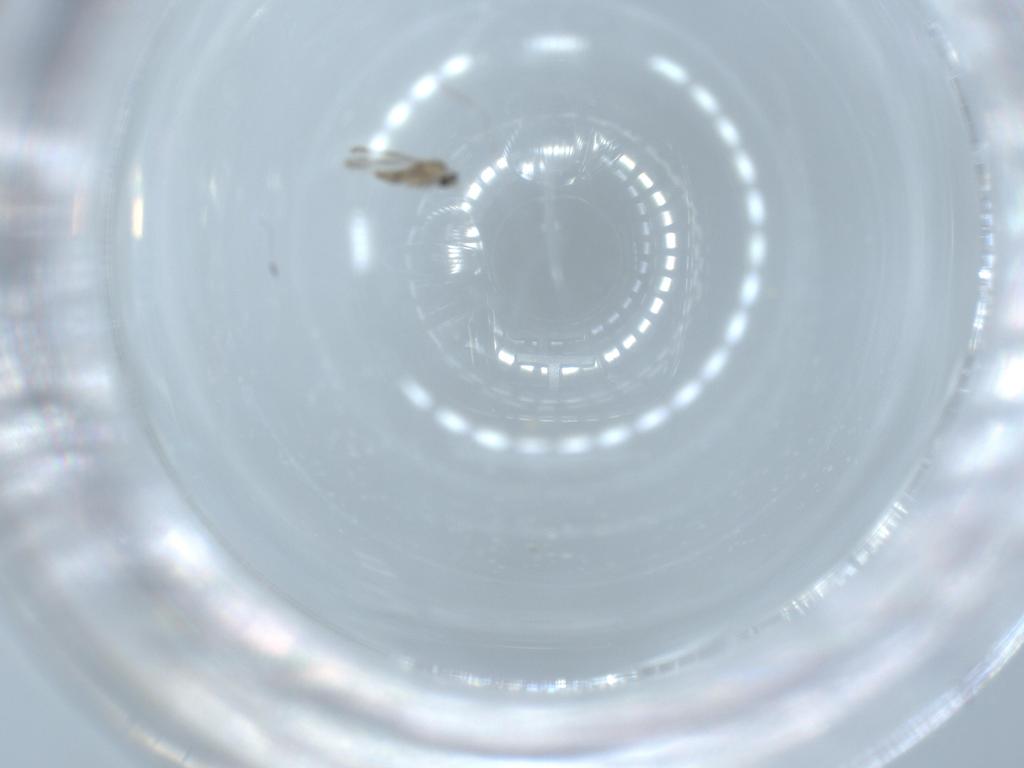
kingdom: Animalia
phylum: Arthropoda
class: Insecta
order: Diptera
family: Cecidomyiidae
